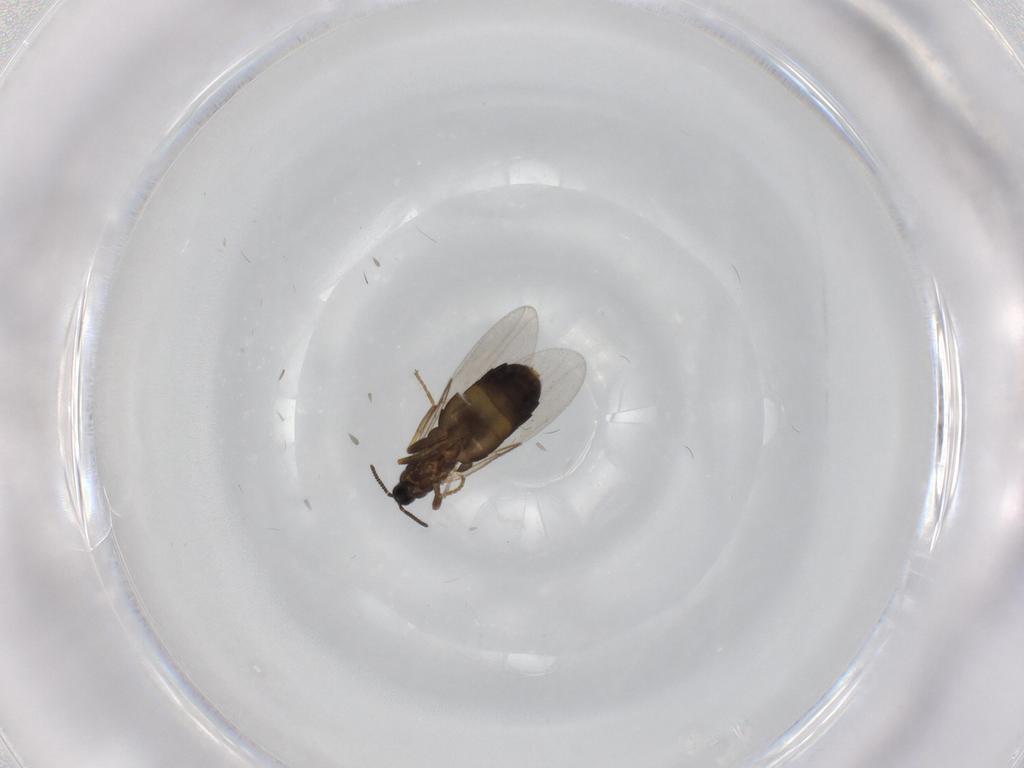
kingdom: Animalia
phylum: Arthropoda
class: Insecta
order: Diptera
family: Scatopsidae
